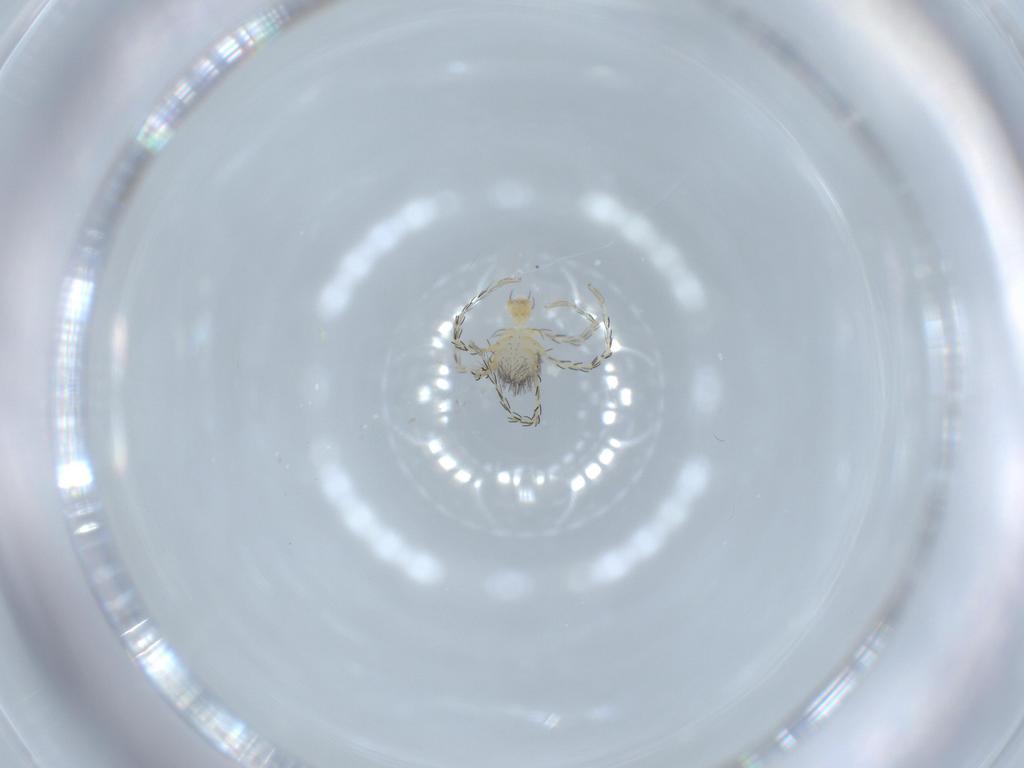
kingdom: Animalia
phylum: Arthropoda
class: Arachnida
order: Trombidiformes
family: Erythraeidae
